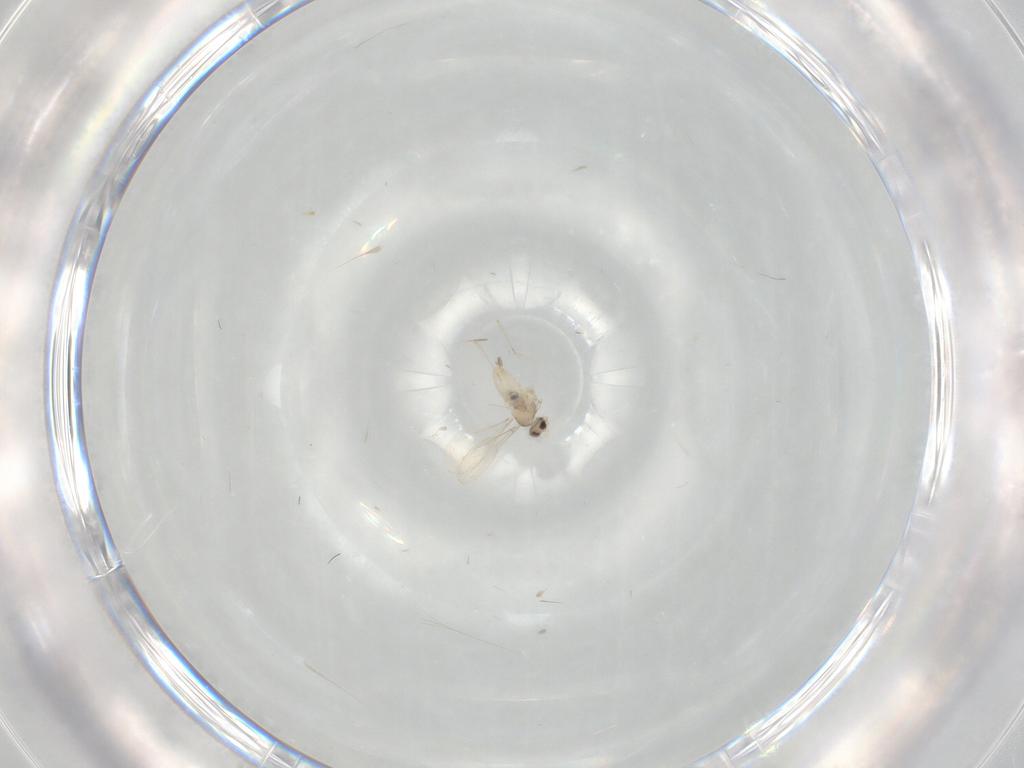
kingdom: Animalia
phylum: Arthropoda
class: Insecta
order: Diptera
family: Cecidomyiidae
